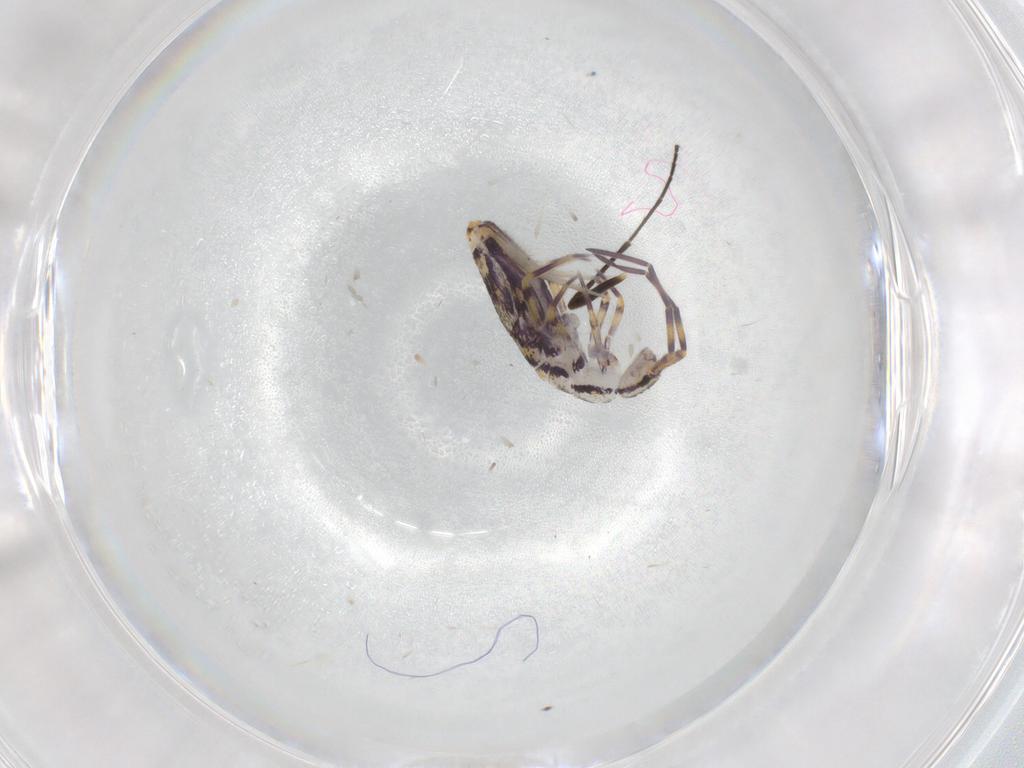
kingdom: Animalia
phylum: Arthropoda
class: Collembola
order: Entomobryomorpha
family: Entomobryidae
